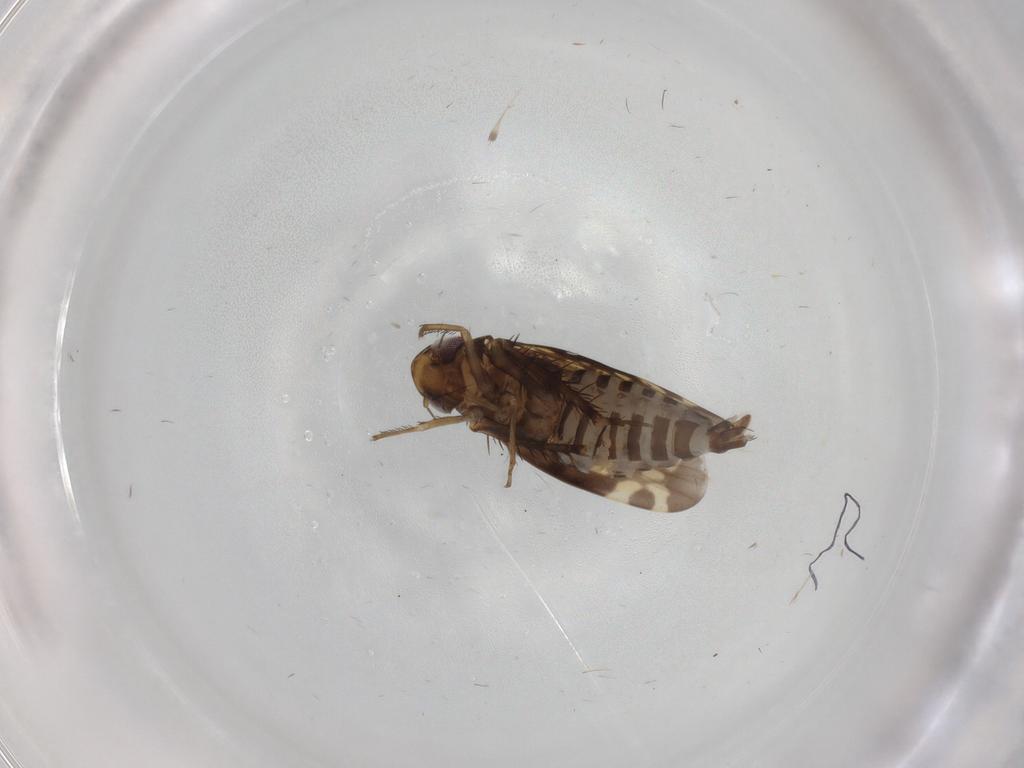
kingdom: Animalia
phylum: Arthropoda
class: Insecta
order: Hemiptera
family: Cicadellidae
